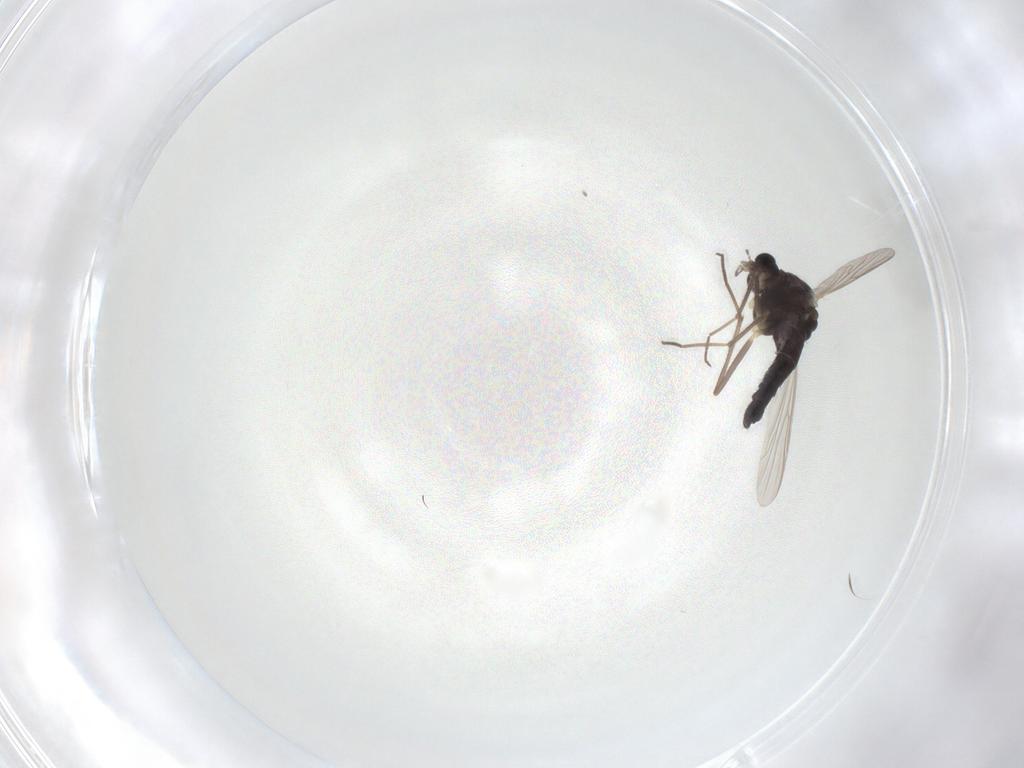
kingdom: Animalia
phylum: Arthropoda
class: Insecta
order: Diptera
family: Chironomidae
